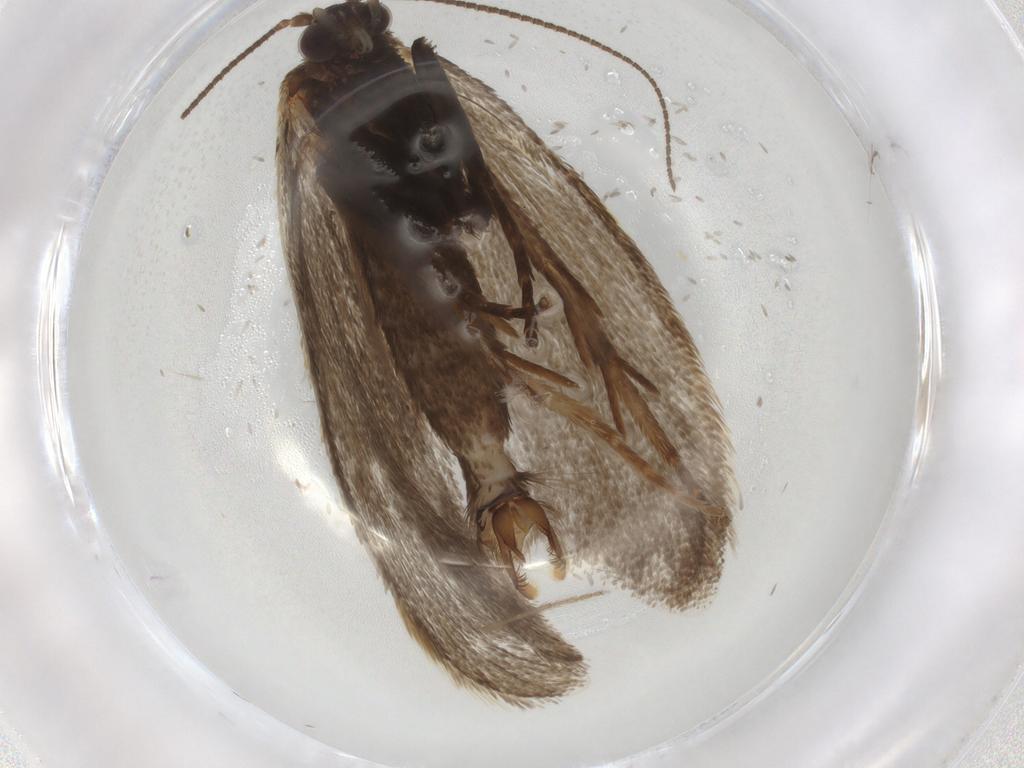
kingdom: Animalia
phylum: Arthropoda
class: Insecta
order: Lepidoptera
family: Crambidae
